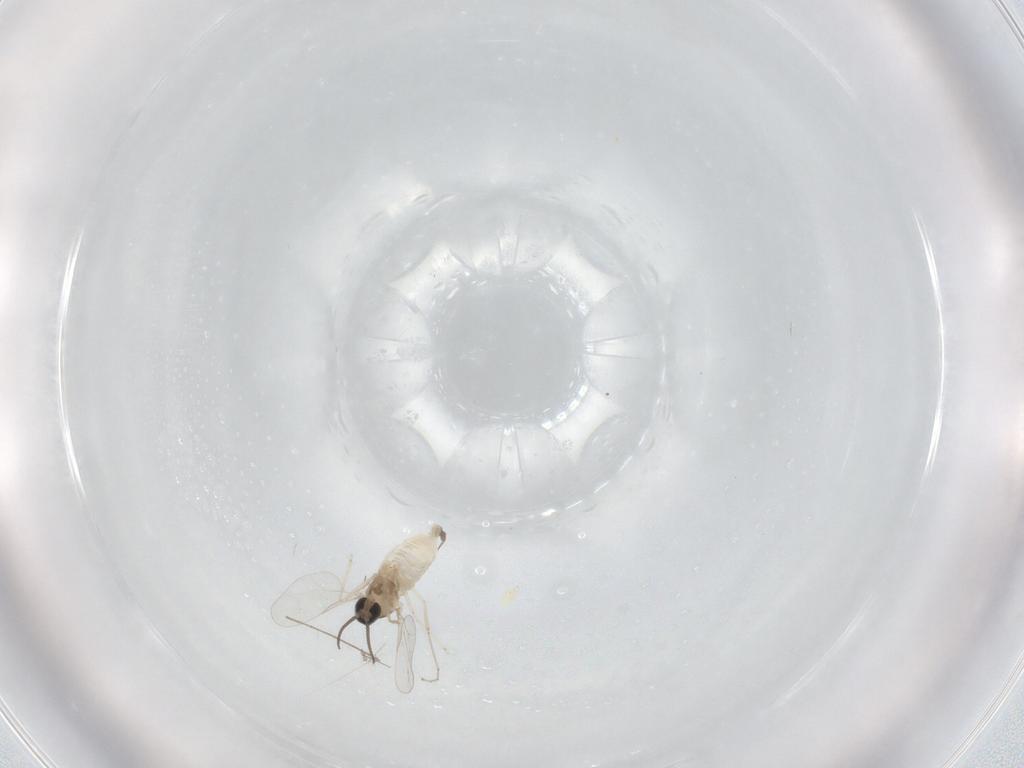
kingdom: Animalia
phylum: Arthropoda
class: Insecta
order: Diptera
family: Cecidomyiidae
